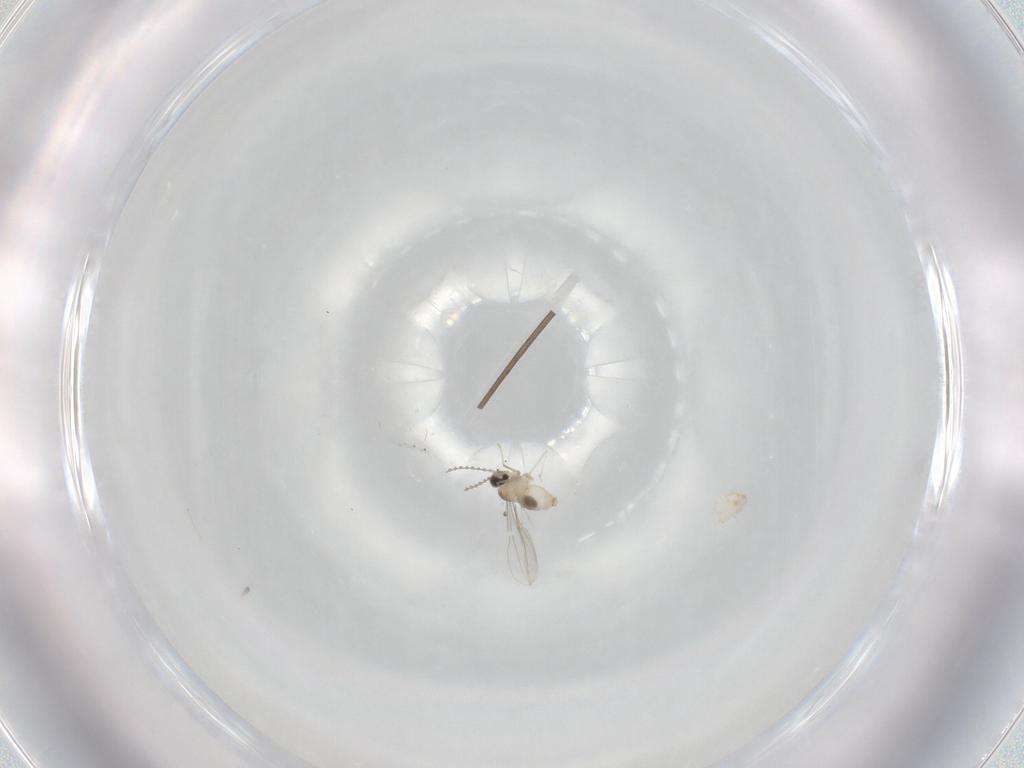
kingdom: Animalia
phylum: Arthropoda
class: Insecta
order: Diptera
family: Cecidomyiidae
